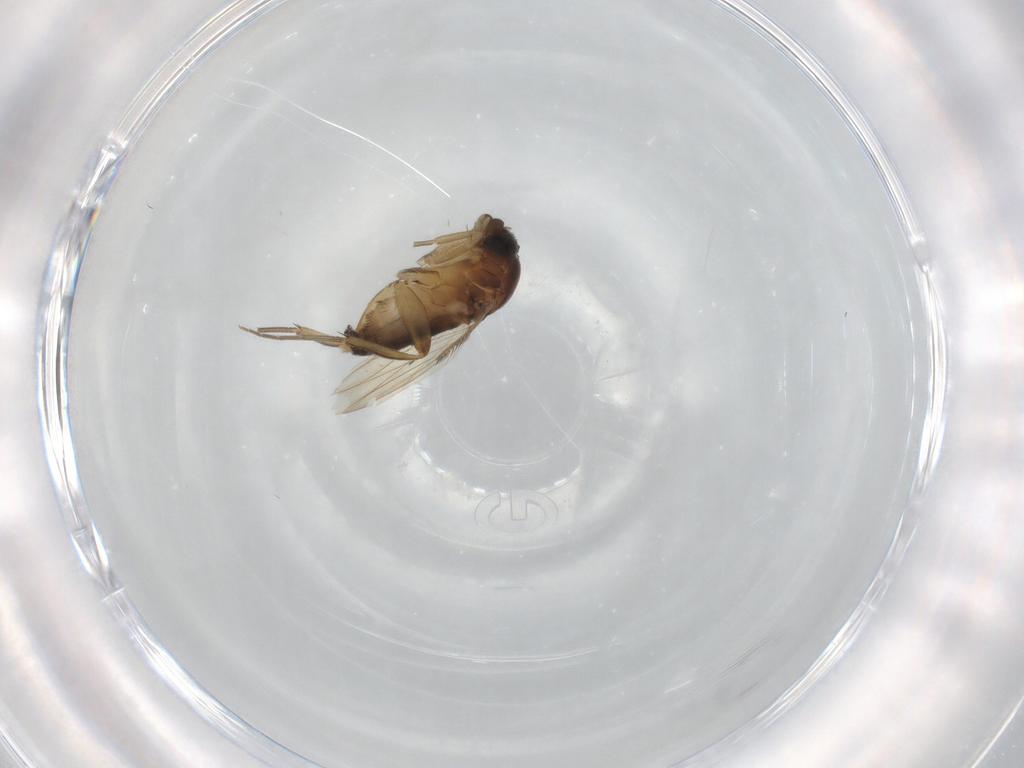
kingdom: Animalia
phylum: Arthropoda
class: Insecta
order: Diptera
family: Phoridae
